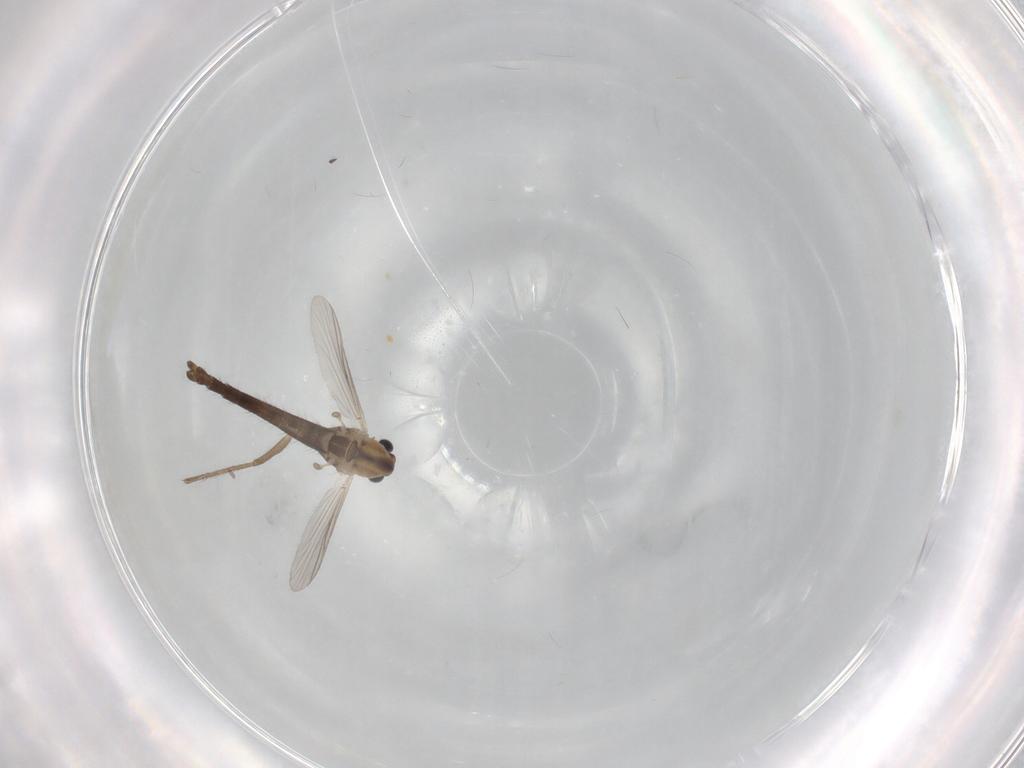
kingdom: Animalia
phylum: Arthropoda
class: Insecta
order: Diptera
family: Chironomidae
